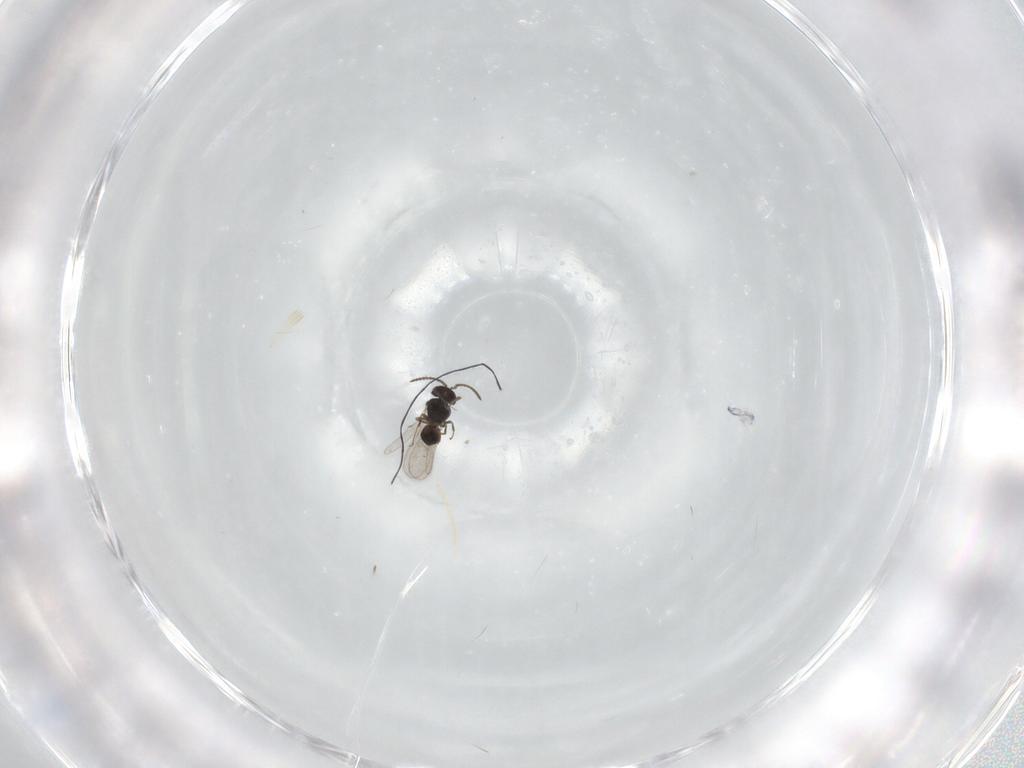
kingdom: Animalia
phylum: Arthropoda
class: Insecta
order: Hymenoptera
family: Scelionidae
